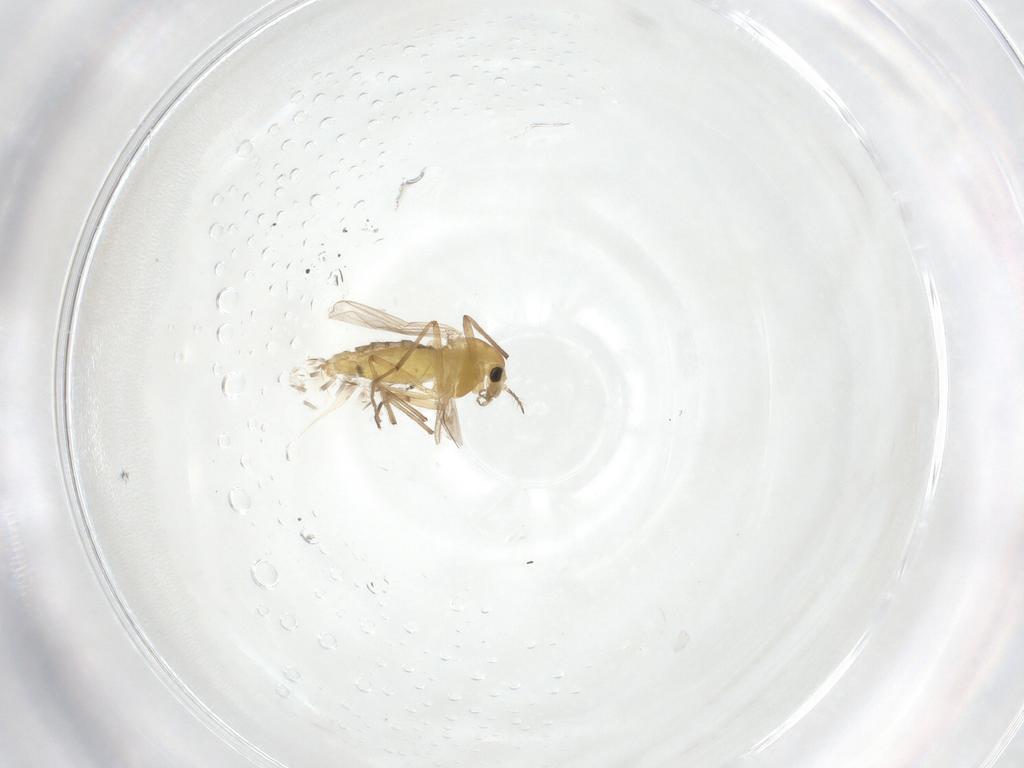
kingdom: Animalia
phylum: Arthropoda
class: Insecta
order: Diptera
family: Chironomidae
